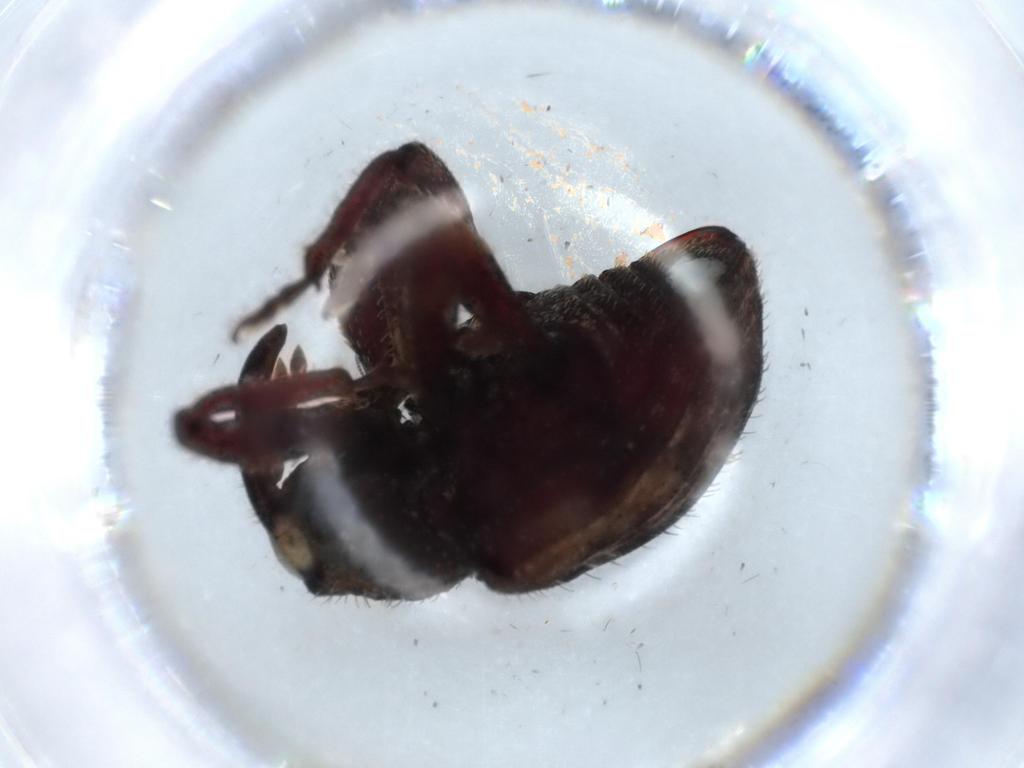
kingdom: Animalia
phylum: Arthropoda
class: Insecta
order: Coleoptera
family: Curculionidae
